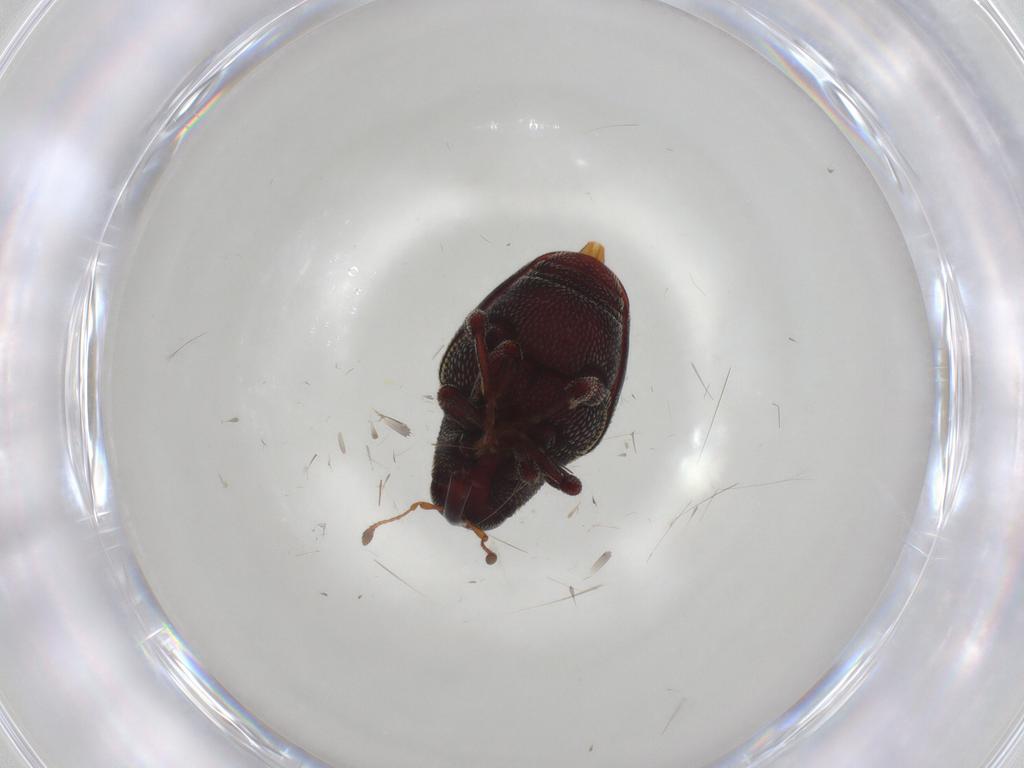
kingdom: Animalia
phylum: Arthropoda
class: Insecta
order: Coleoptera
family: Curculionidae
